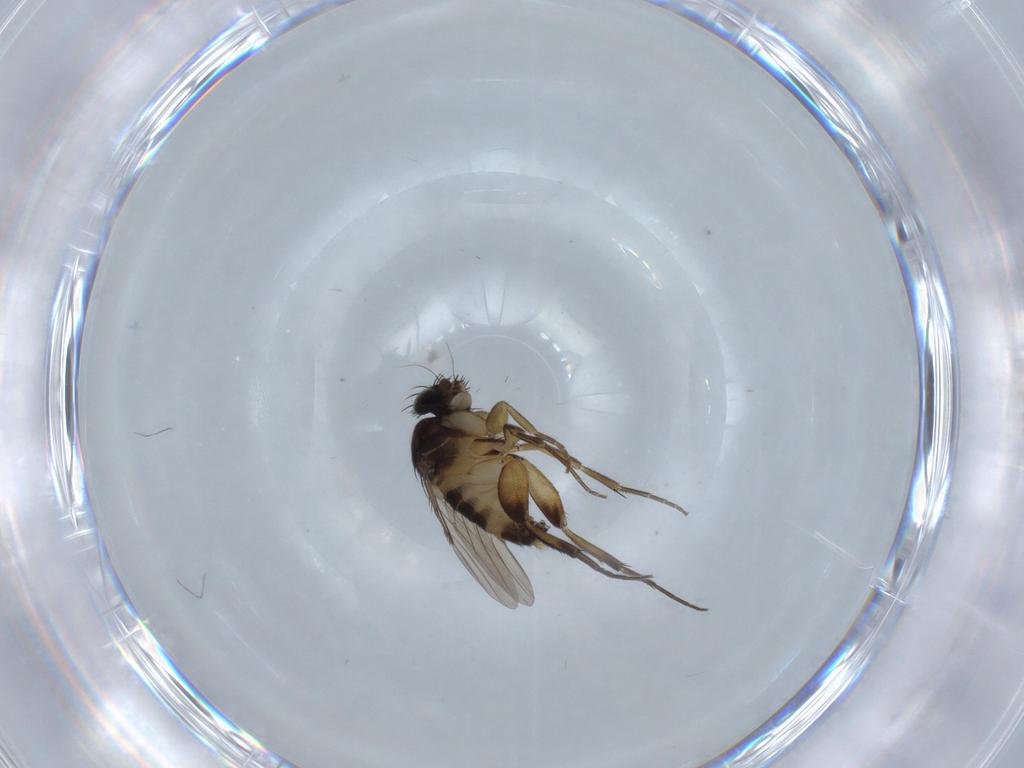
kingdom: Animalia
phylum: Arthropoda
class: Insecta
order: Diptera
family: Phoridae
